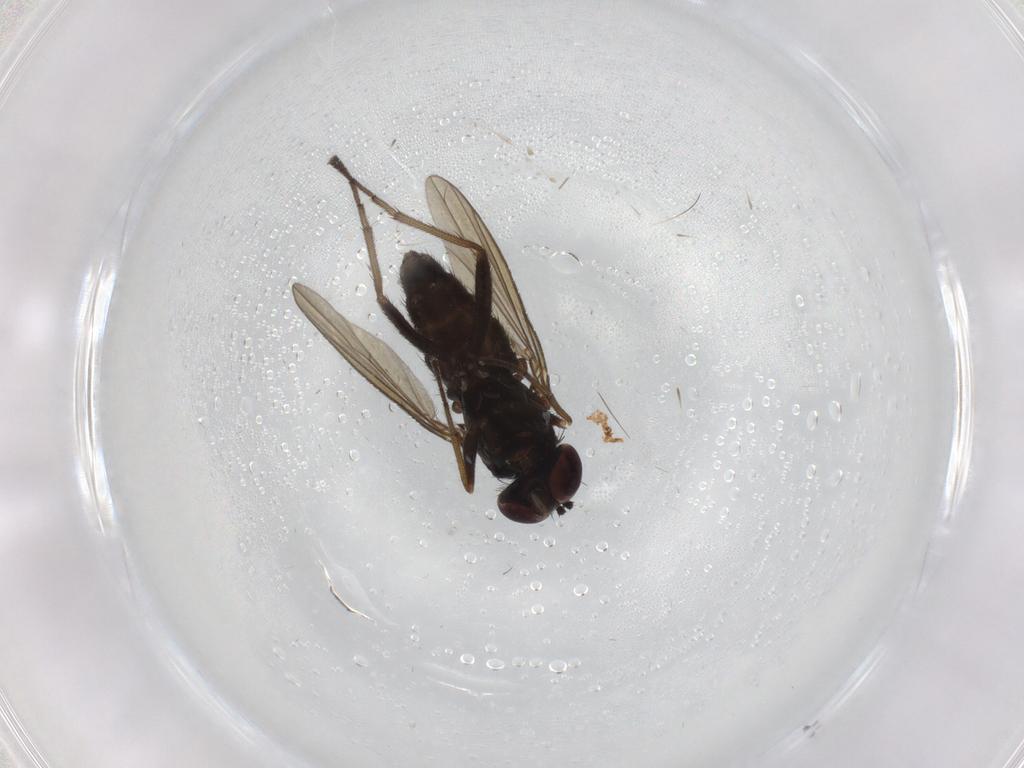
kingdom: Animalia
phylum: Arthropoda
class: Insecta
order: Diptera
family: Dolichopodidae
